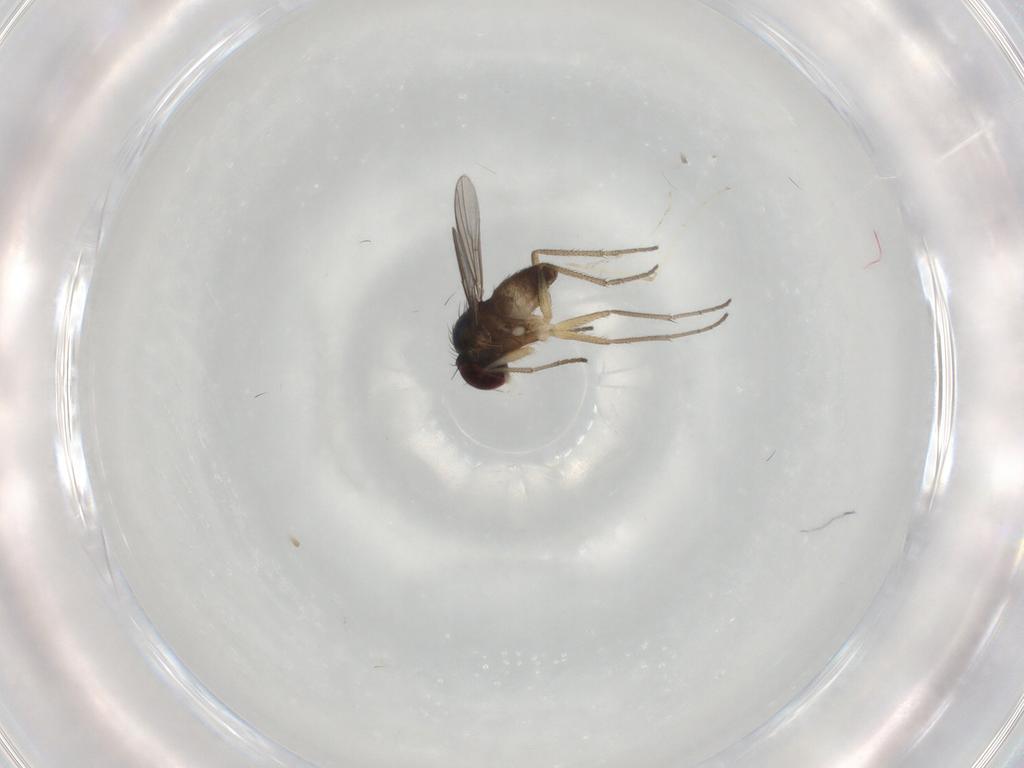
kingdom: Animalia
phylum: Arthropoda
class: Insecta
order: Diptera
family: Dolichopodidae
